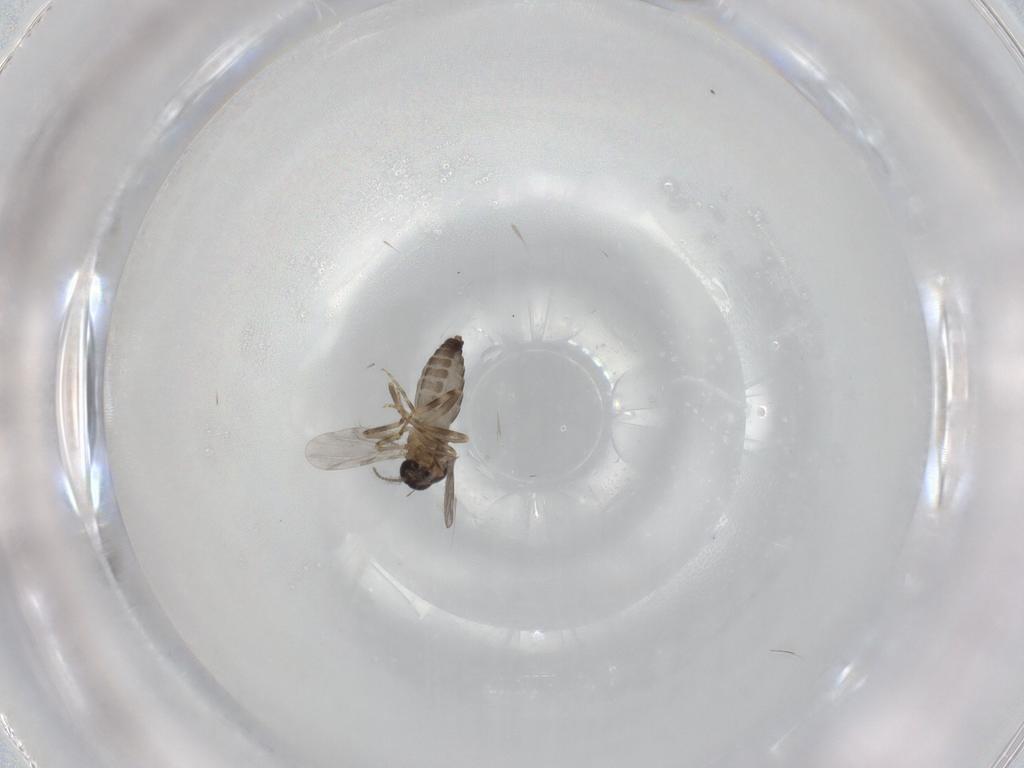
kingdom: Animalia
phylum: Arthropoda
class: Insecta
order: Diptera
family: Ceratopogonidae
